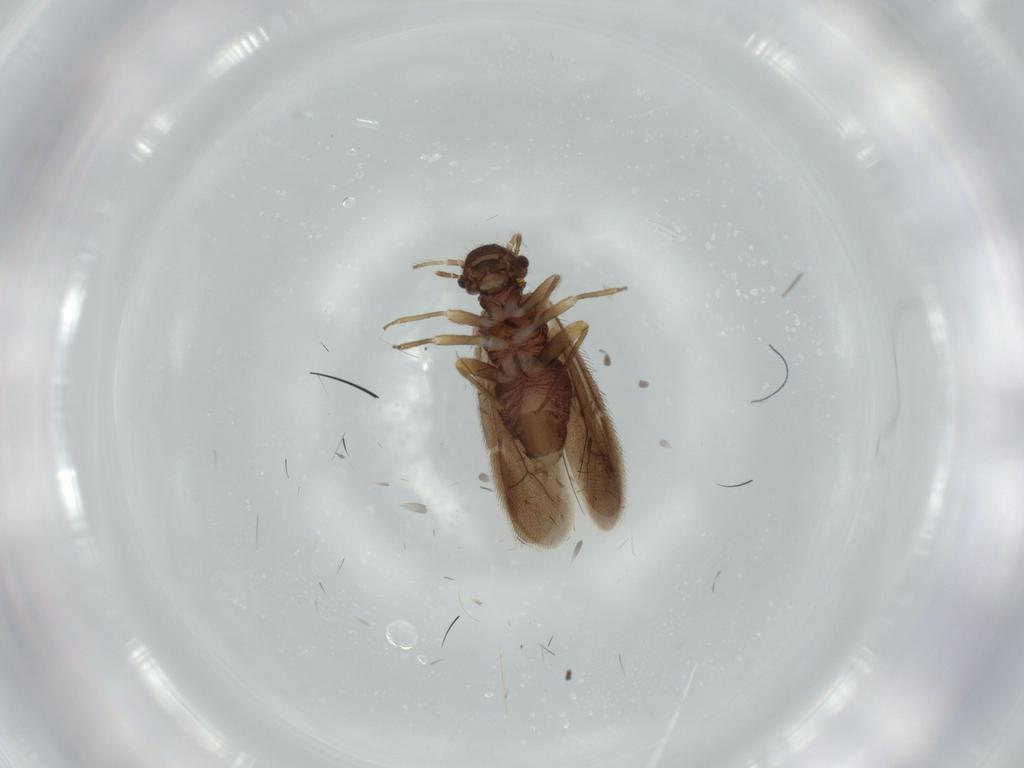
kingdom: Animalia
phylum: Arthropoda
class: Insecta
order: Psocodea
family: Archipsocidae
